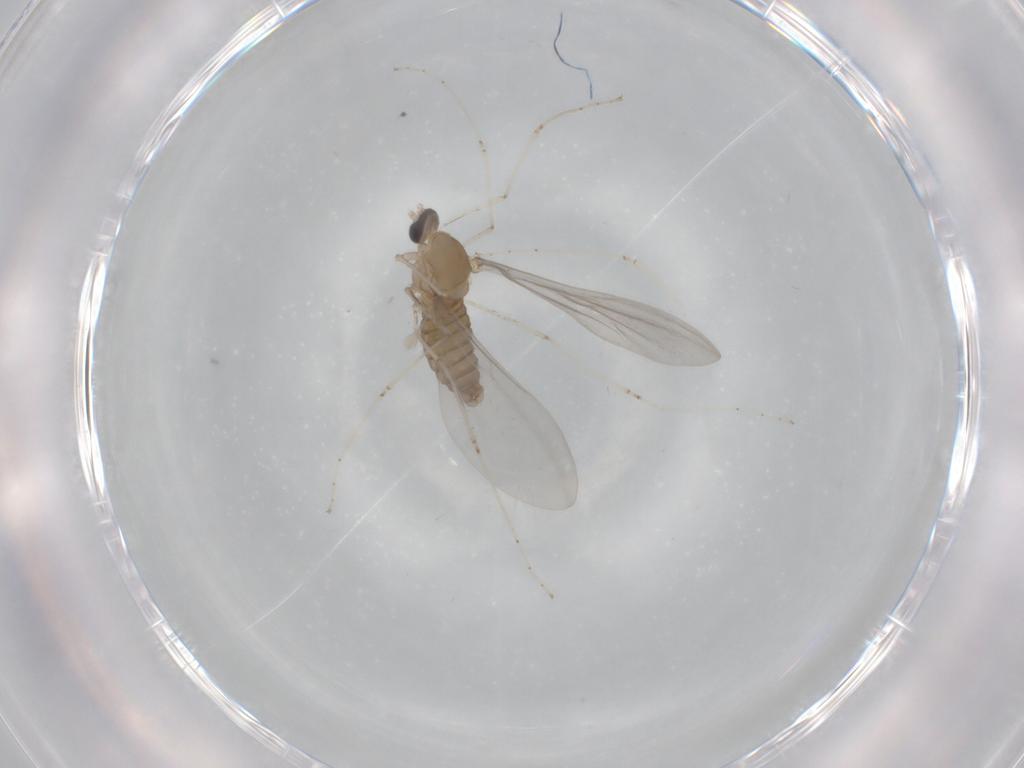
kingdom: Animalia
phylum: Arthropoda
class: Insecta
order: Diptera
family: Cecidomyiidae
